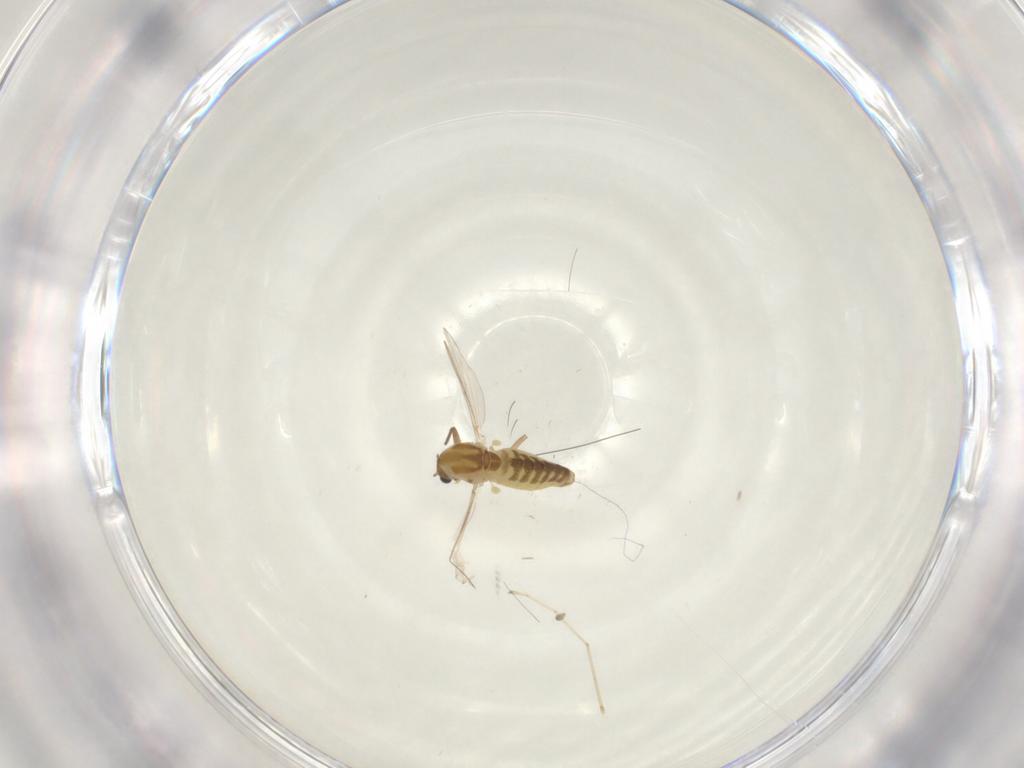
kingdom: Animalia
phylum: Arthropoda
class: Insecta
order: Diptera
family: Chironomidae
